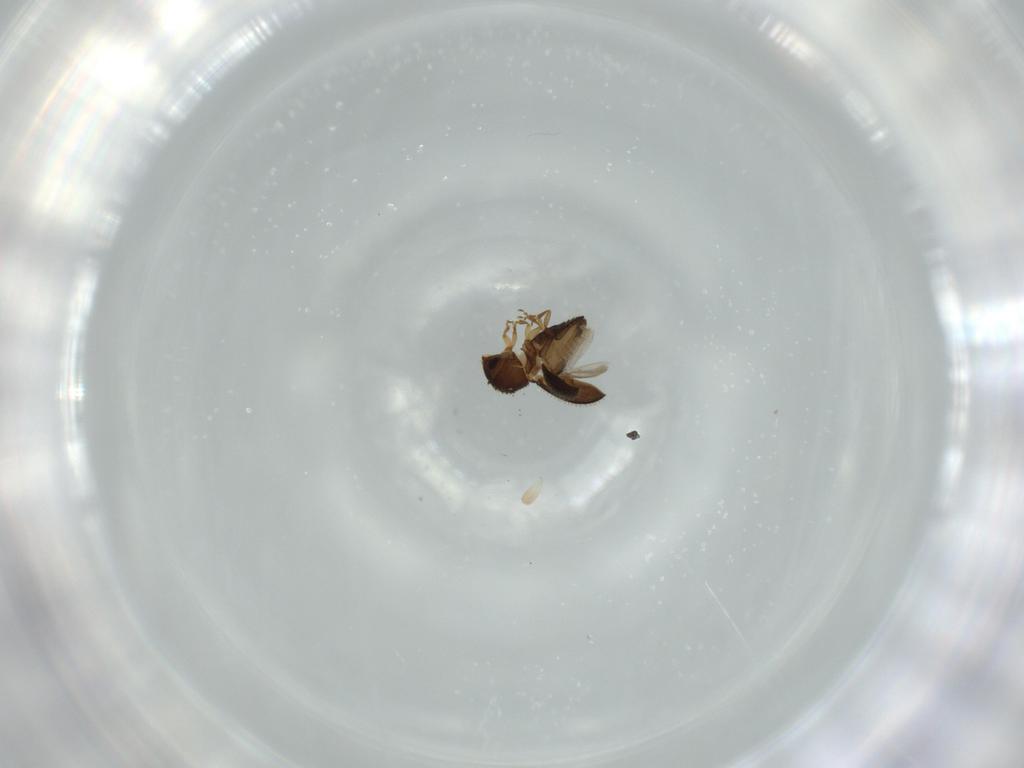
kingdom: Animalia
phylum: Arthropoda
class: Insecta
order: Coleoptera
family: Curculionidae
